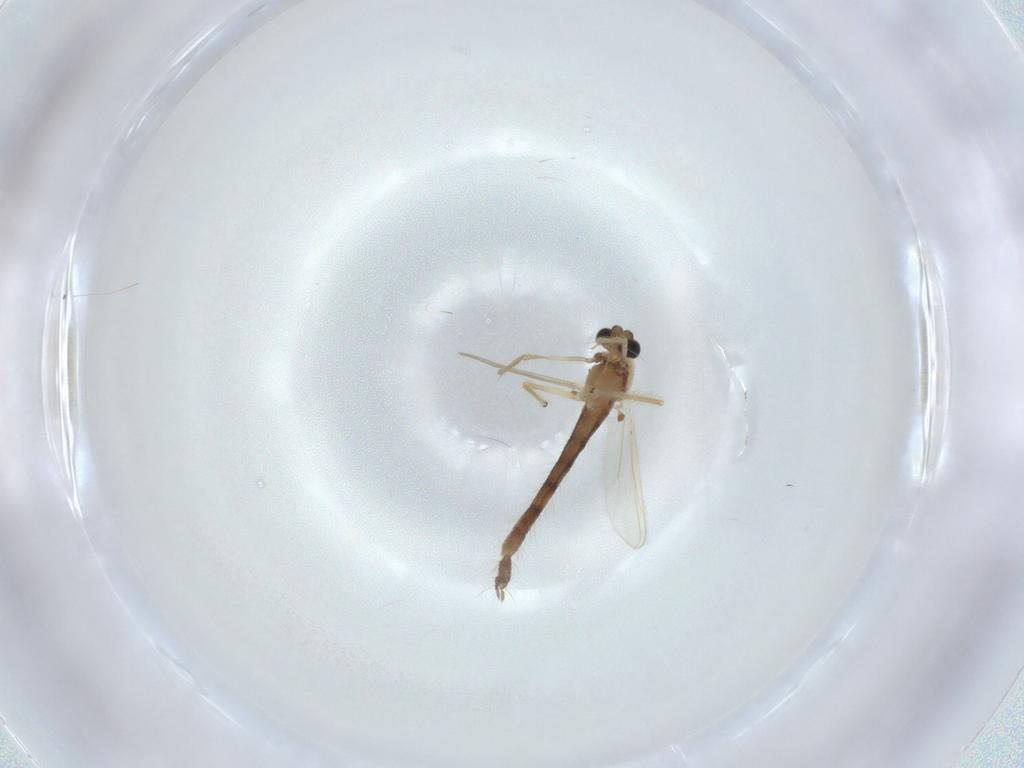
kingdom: Animalia
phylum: Arthropoda
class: Insecta
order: Diptera
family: Chironomidae
